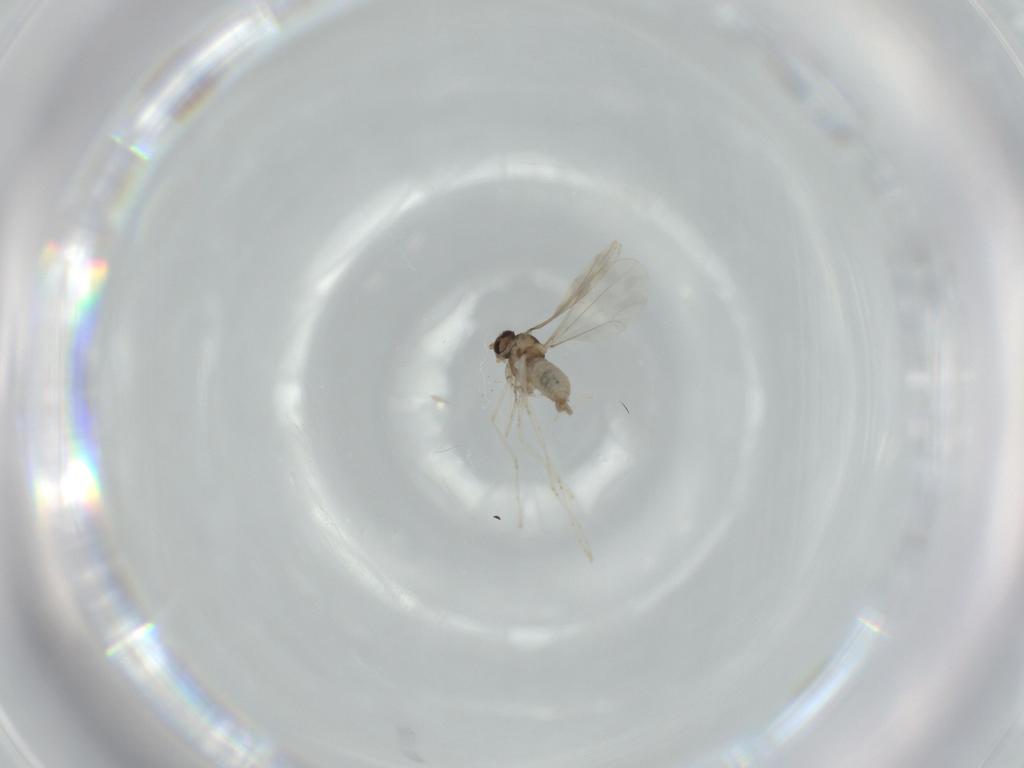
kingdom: Animalia
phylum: Arthropoda
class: Insecta
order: Diptera
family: Cecidomyiidae
